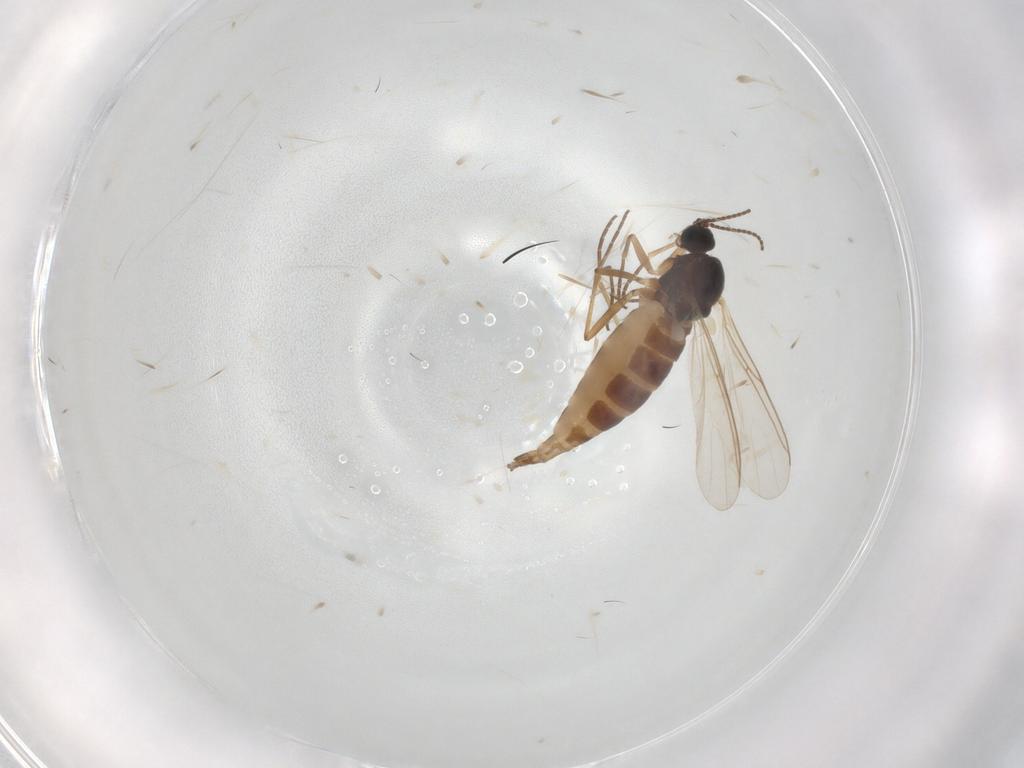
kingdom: Animalia
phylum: Arthropoda
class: Insecta
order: Diptera
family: Sciaridae
